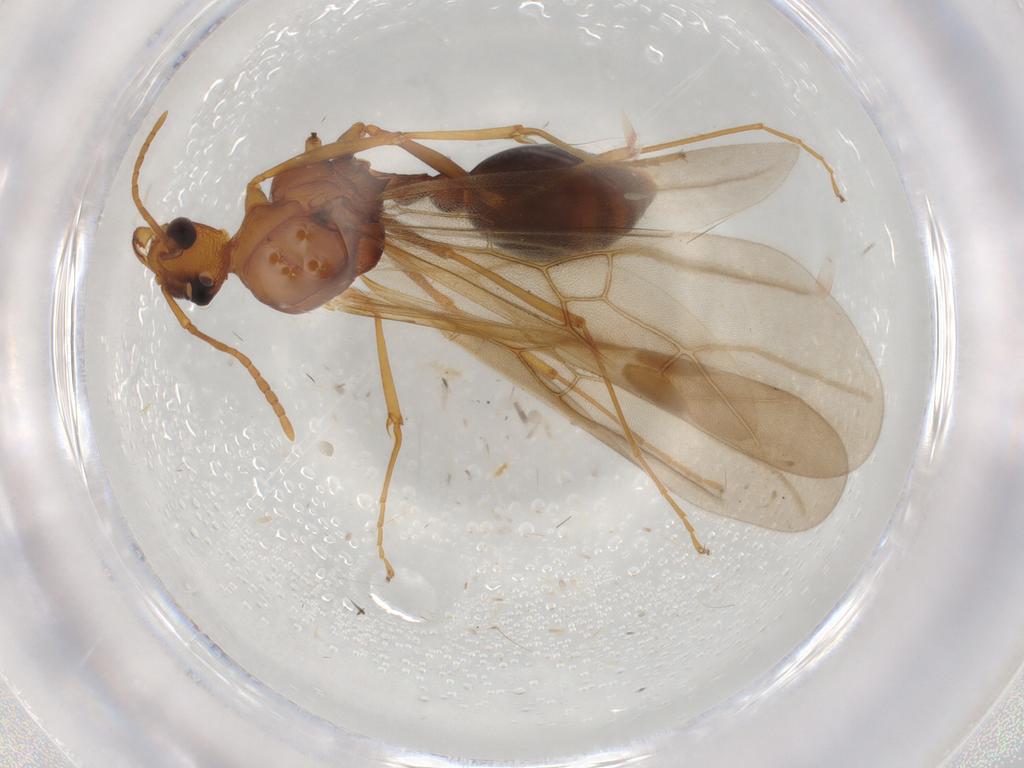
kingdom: Animalia
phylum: Arthropoda
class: Insecta
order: Hymenoptera
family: Formicidae
